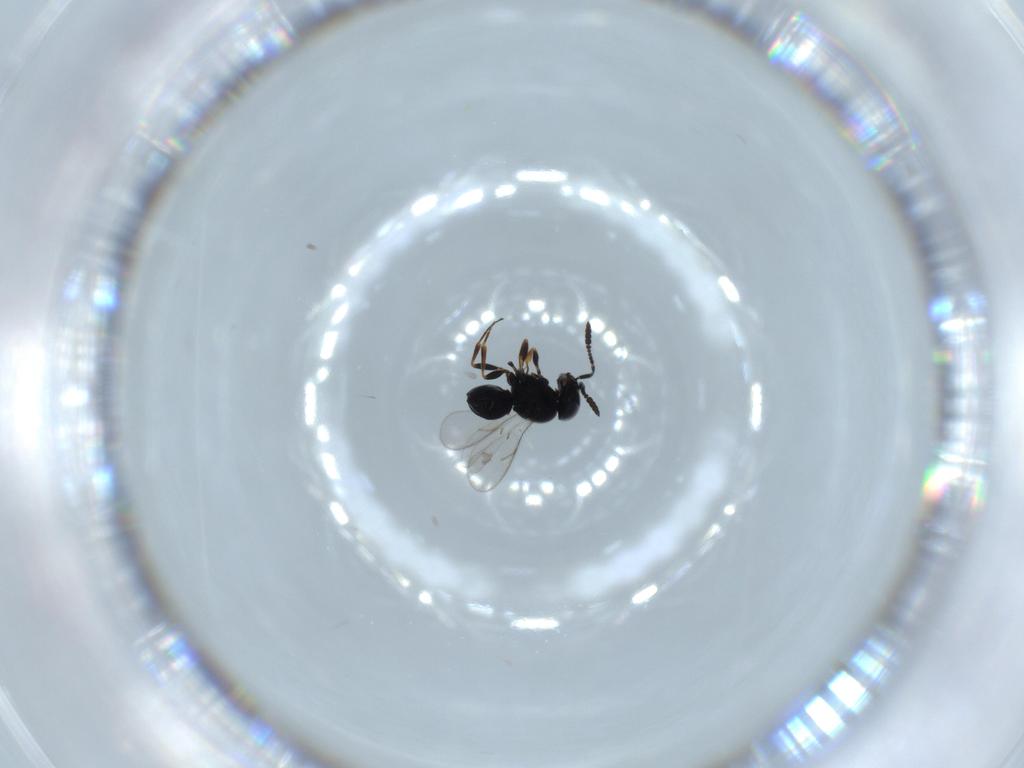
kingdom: Animalia
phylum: Arthropoda
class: Insecta
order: Hymenoptera
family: Scelionidae
